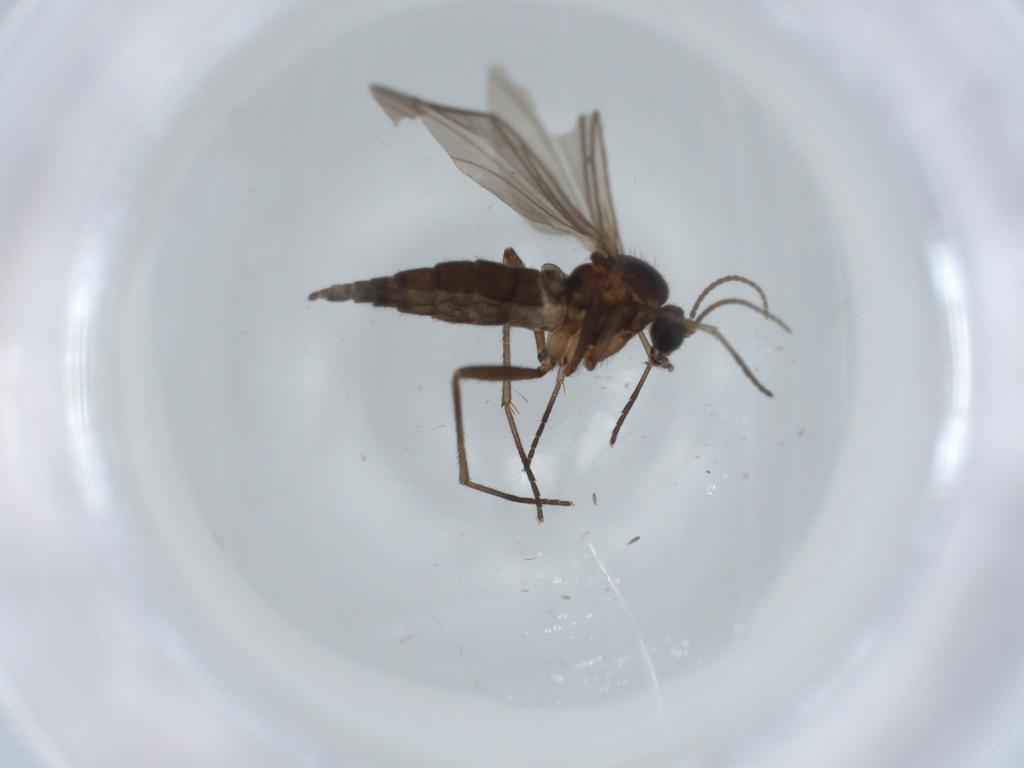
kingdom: Animalia
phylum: Arthropoda
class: Insecta
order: Diptera
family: Sciaridae
